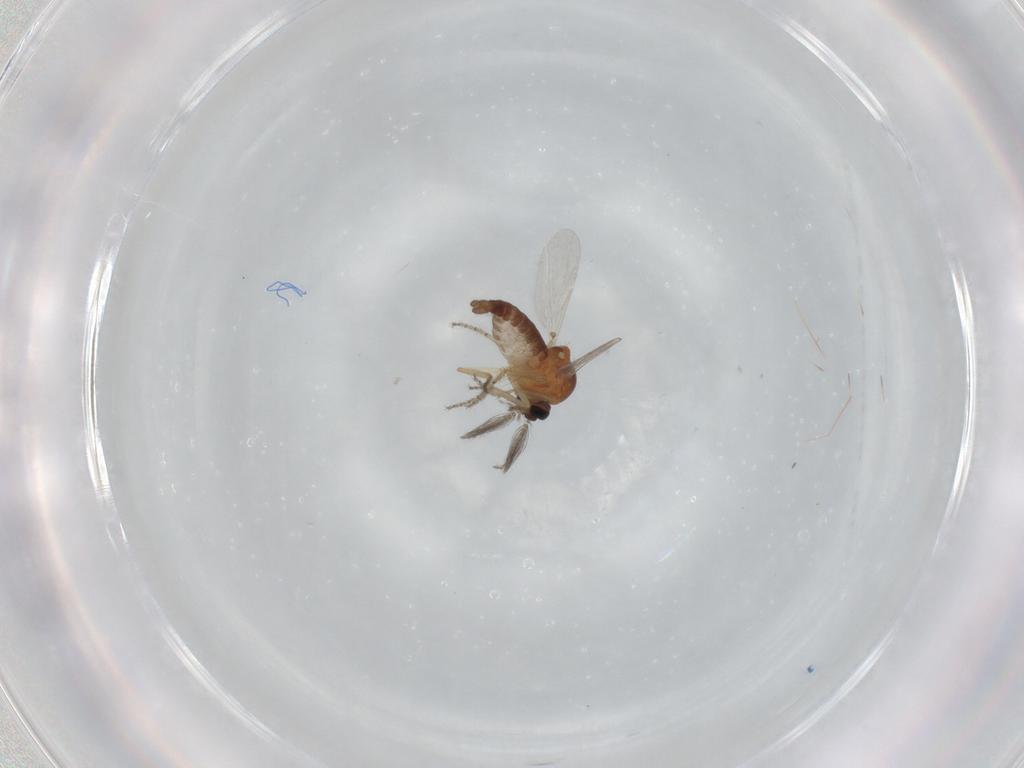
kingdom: Animalia
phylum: Arthropoda
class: Insecta
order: Diptera
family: Ceratopogonidae
